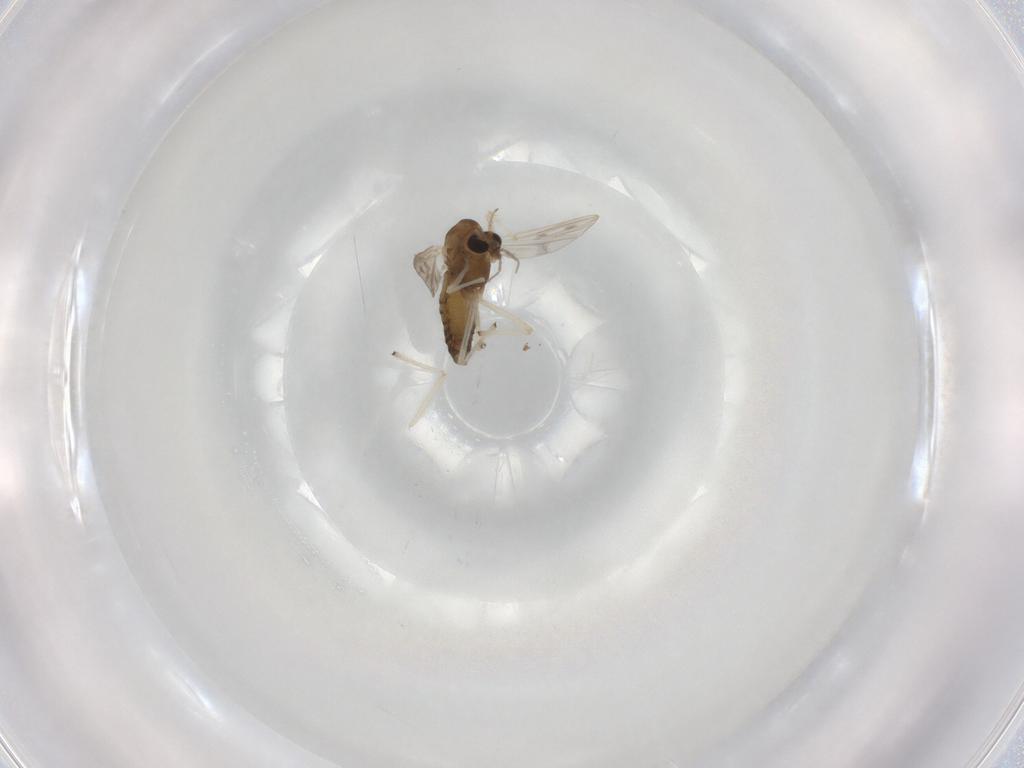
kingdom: Animalia
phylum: Arthropoda
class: Insecta
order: Diptera
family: Chironomidae
